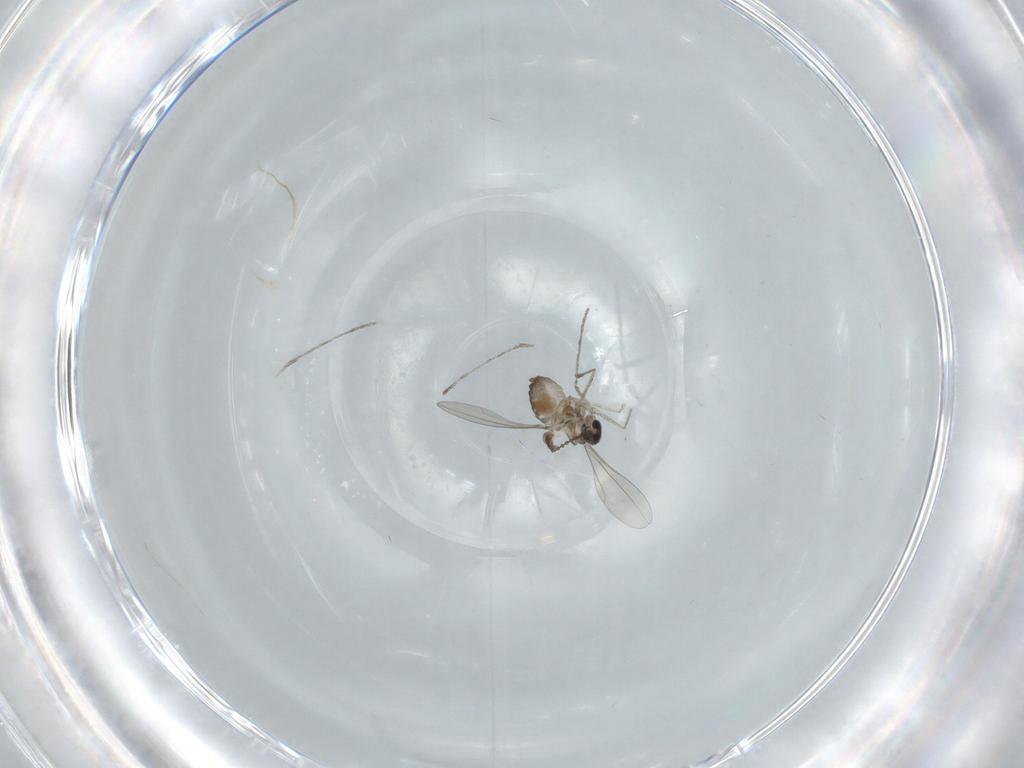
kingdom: Animalia
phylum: Arthropoda
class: Insecta
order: Diptera
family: Cecidomyiidae
